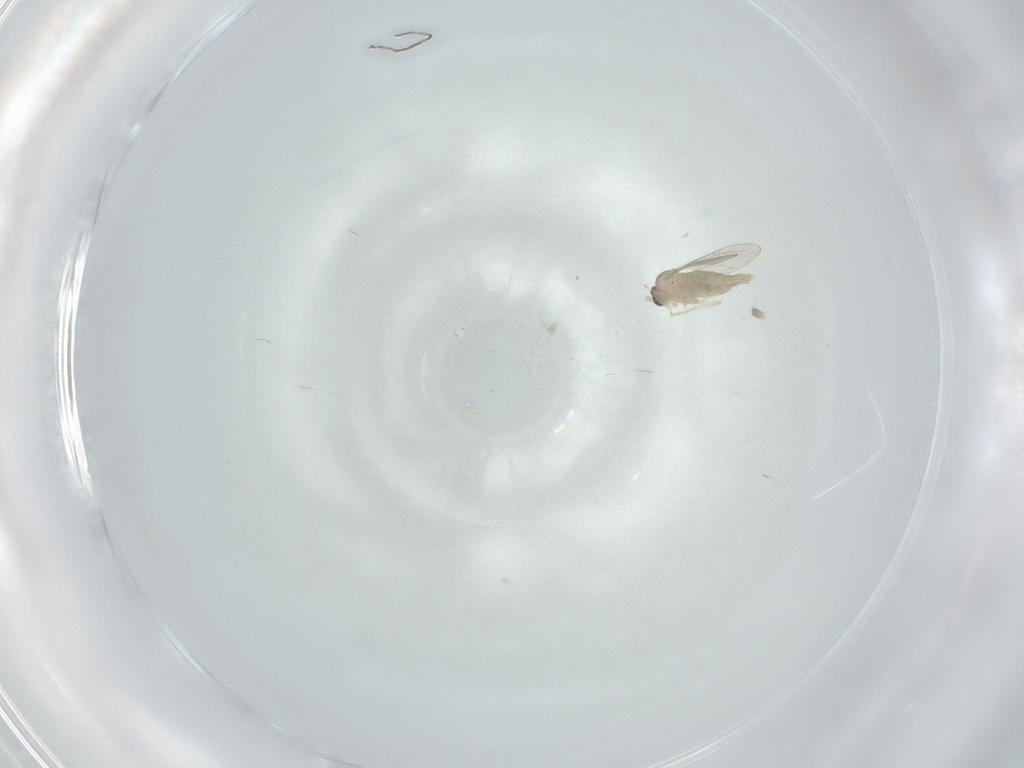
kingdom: Animalia
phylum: Arthropoda
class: Insecta
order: Diptera
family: Cecidomyiidae
